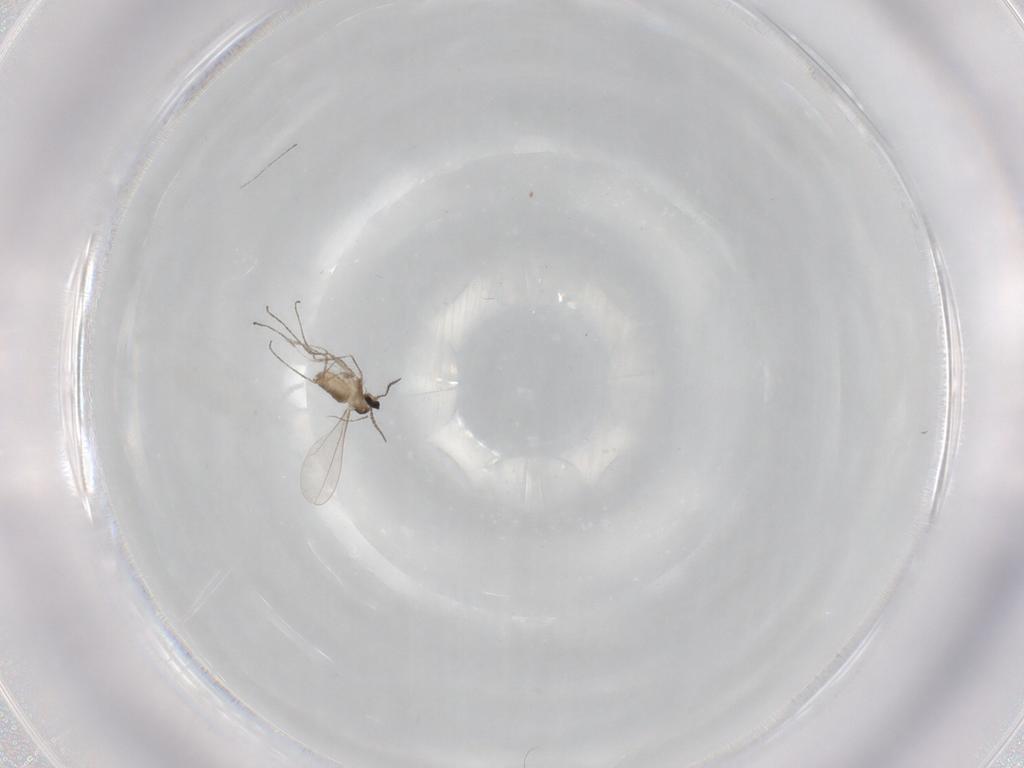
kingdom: Animalia
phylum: Arthropoda
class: Insecta
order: Diptera
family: Cecidomyiidae
